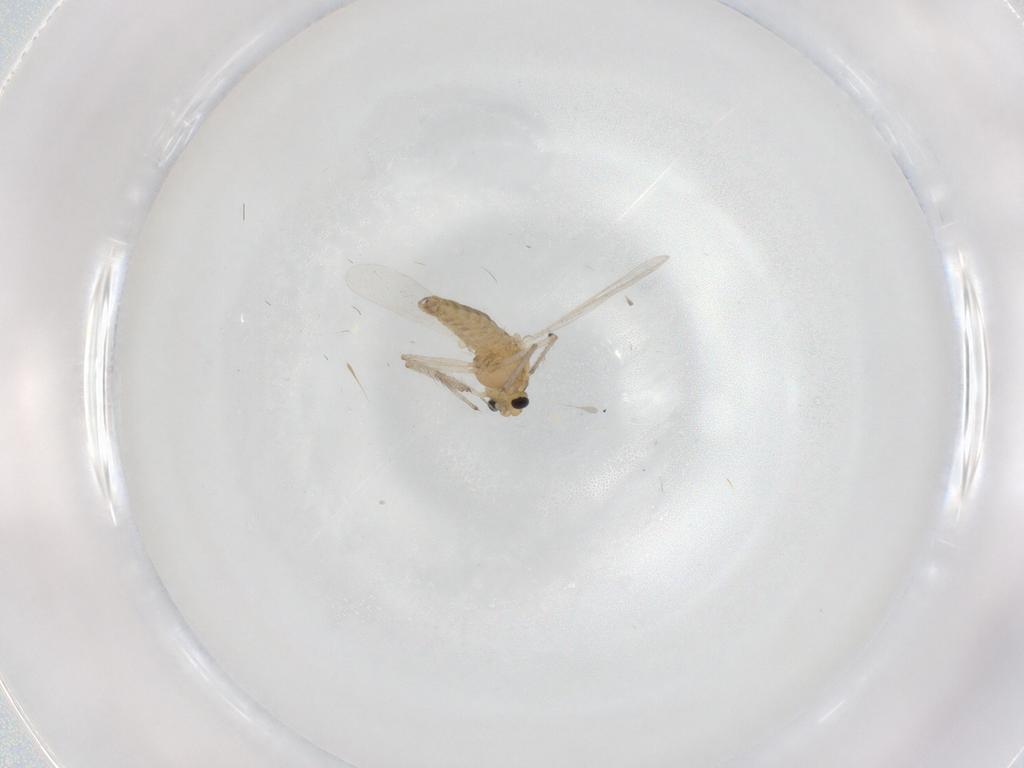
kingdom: Animalia
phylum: Arthropoda
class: Insecta
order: Diptera
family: Chironomidae
